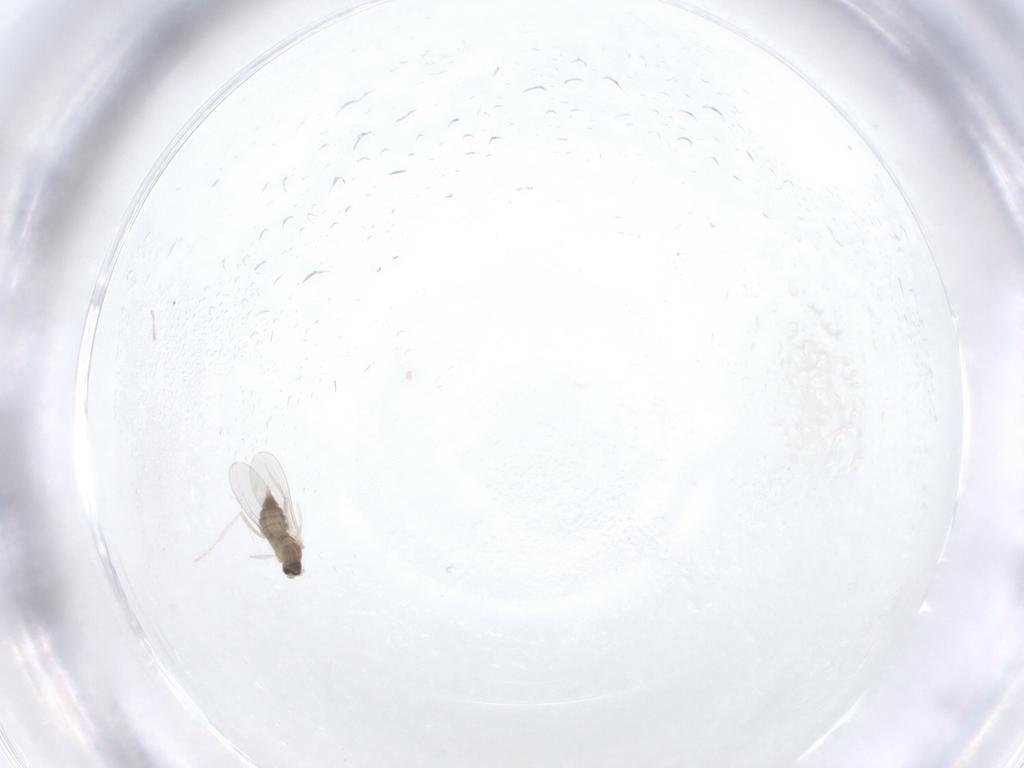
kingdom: Animalia
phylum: Arthropoda
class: Insecta
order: Diptera
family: Cecidomyiidae
